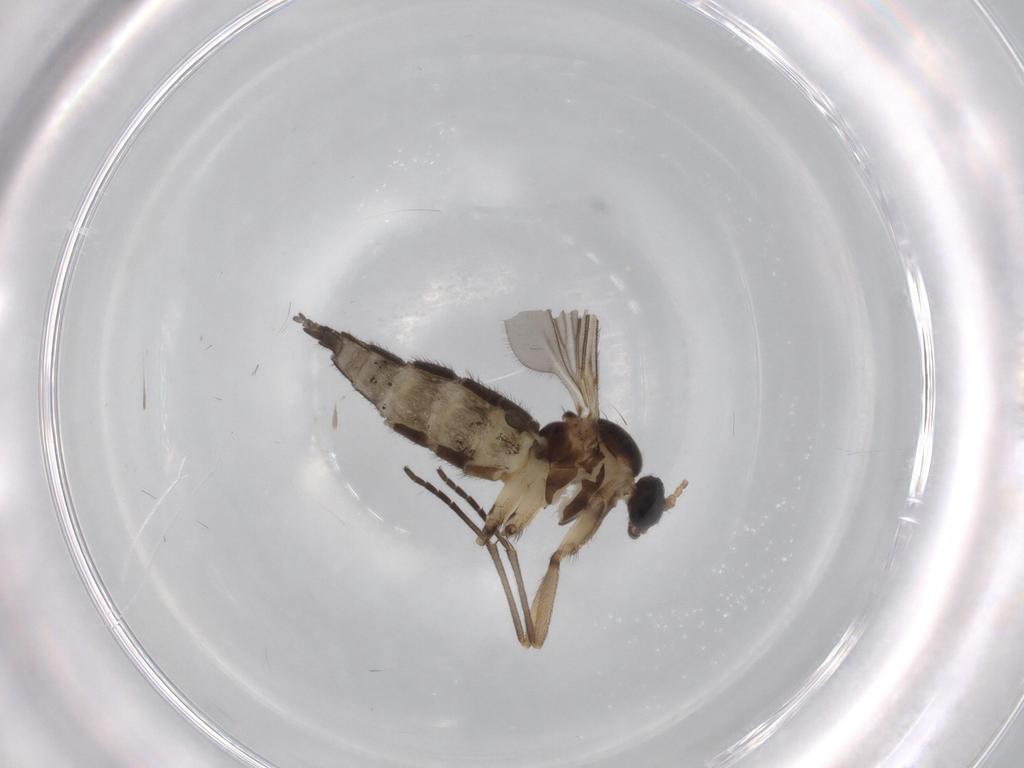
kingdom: Animalia
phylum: Arthropoda
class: Insecta
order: Diptera
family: Sciaridae
